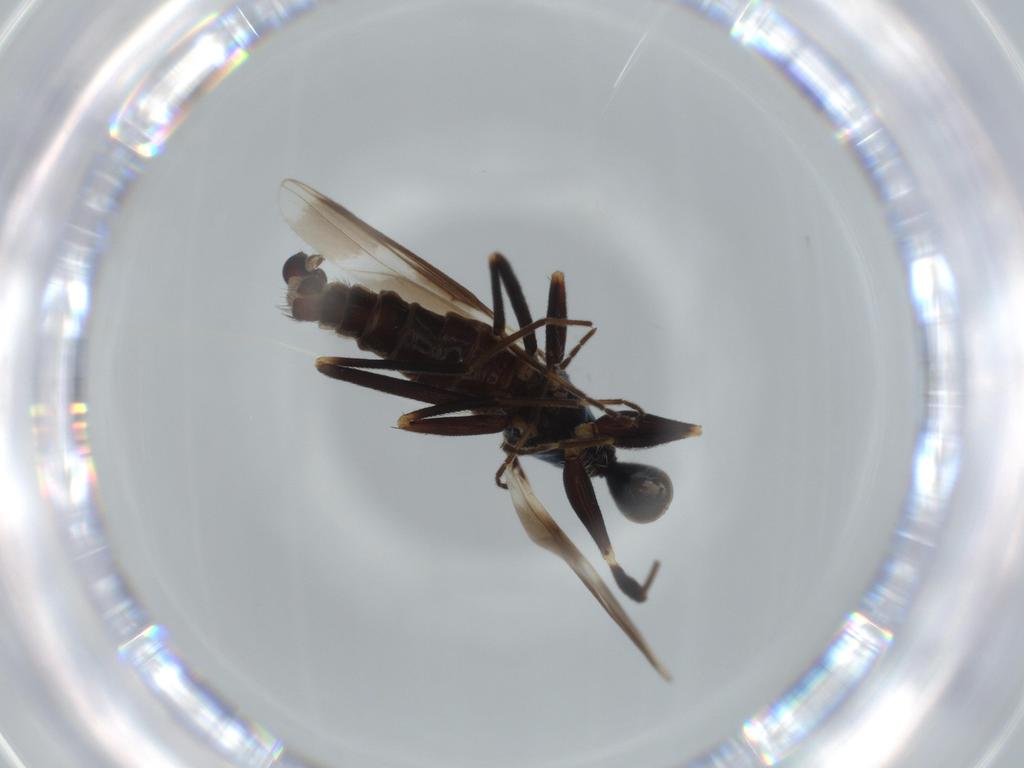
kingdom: Animalia
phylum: Arthropoda
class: Insecta
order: Diptera
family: Hybotidae
